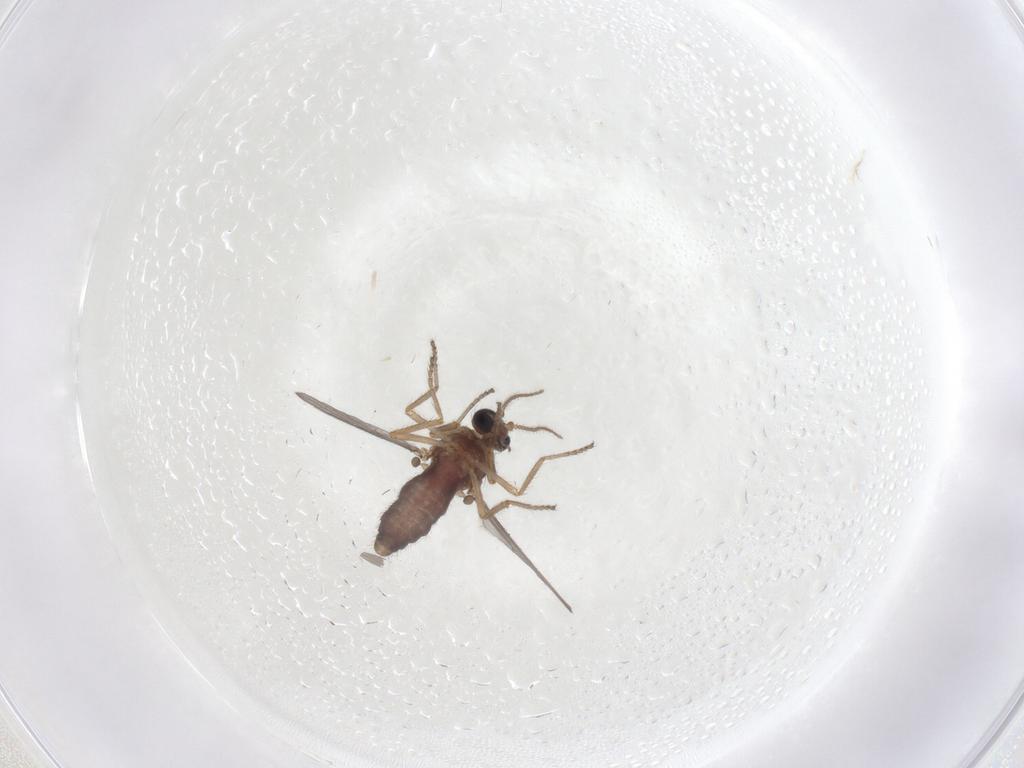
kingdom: Animalia
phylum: Arthropoda
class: Insecta
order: Diptera
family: Ceratopogonidae
